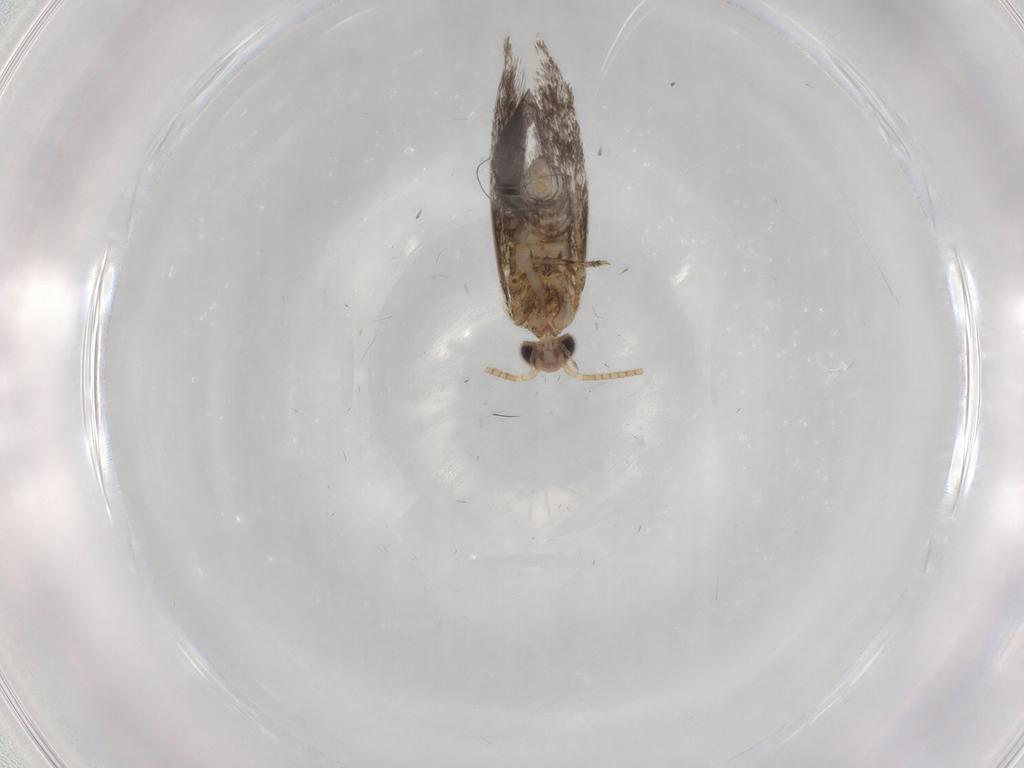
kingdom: Animalia
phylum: Arthropoda
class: Insecta
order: Lepidoptera
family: Tineidae
